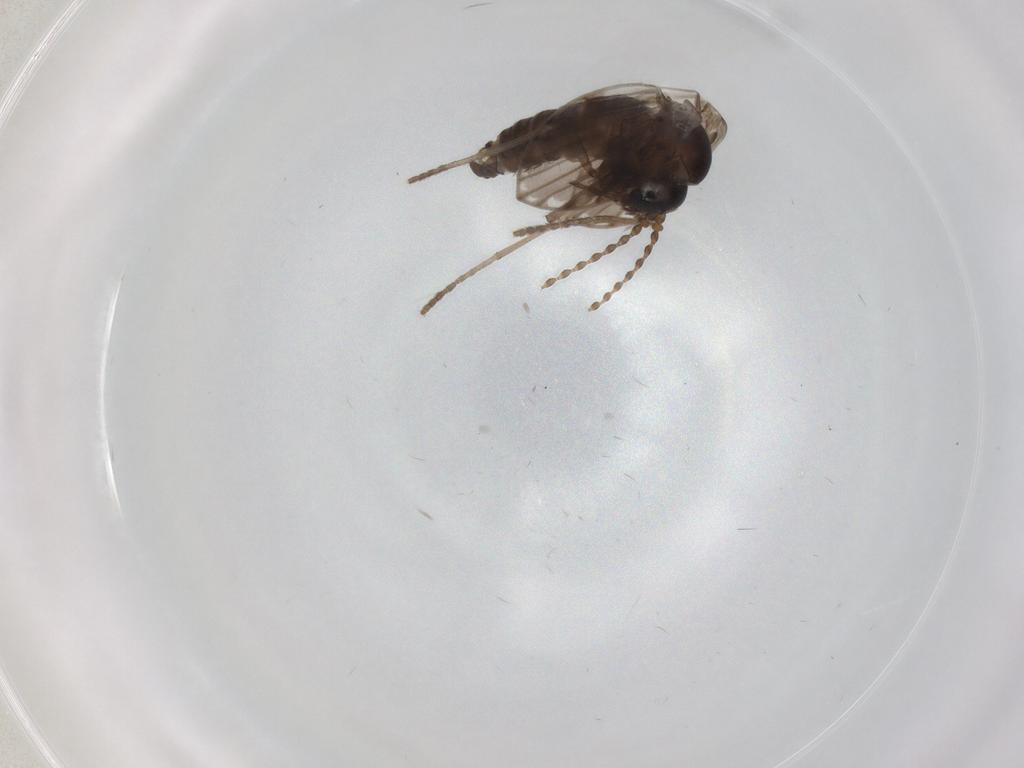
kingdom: Animalia
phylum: Arthropoda
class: Insecta
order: Diptera
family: Psychodidae
